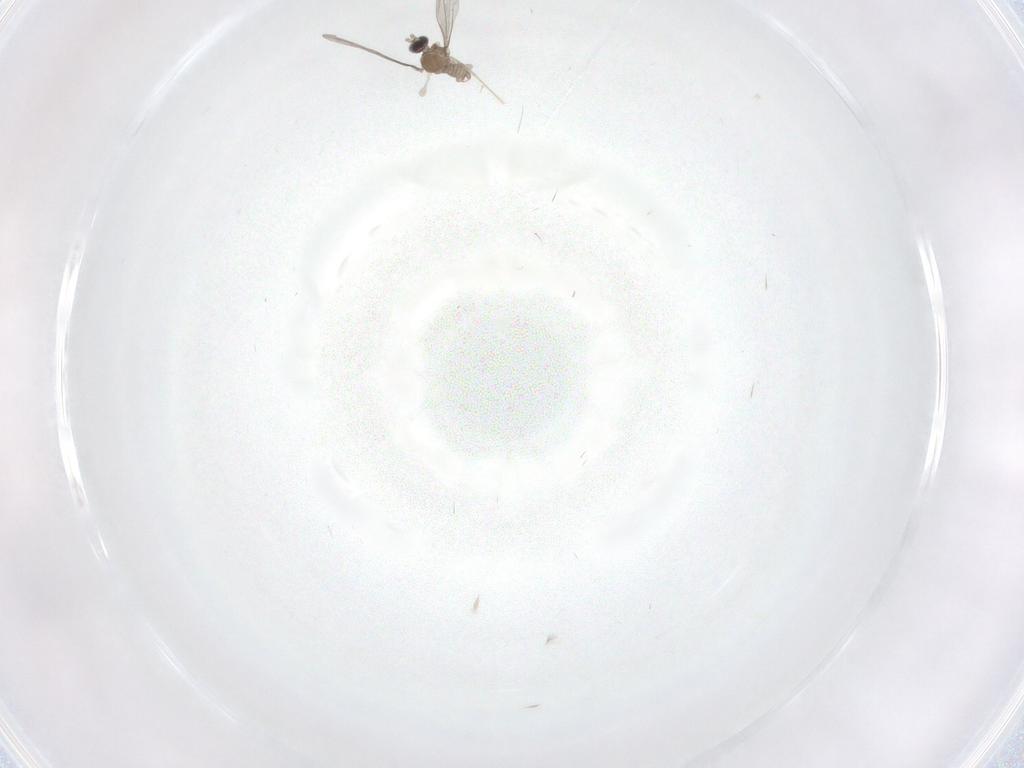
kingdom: Animalia
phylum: Arthropoda
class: Insecta
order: Diptera
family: Cecidomyiidae
